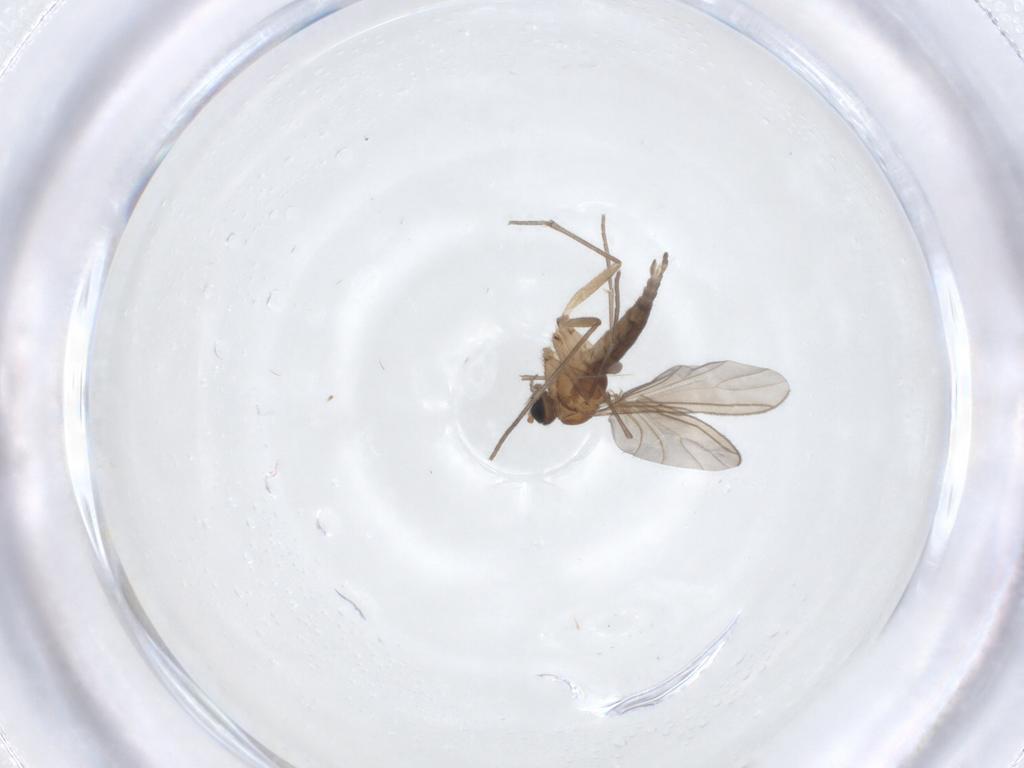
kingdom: Animalia
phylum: Arthropoda
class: Insecta
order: Diptera
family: Sciaridae
